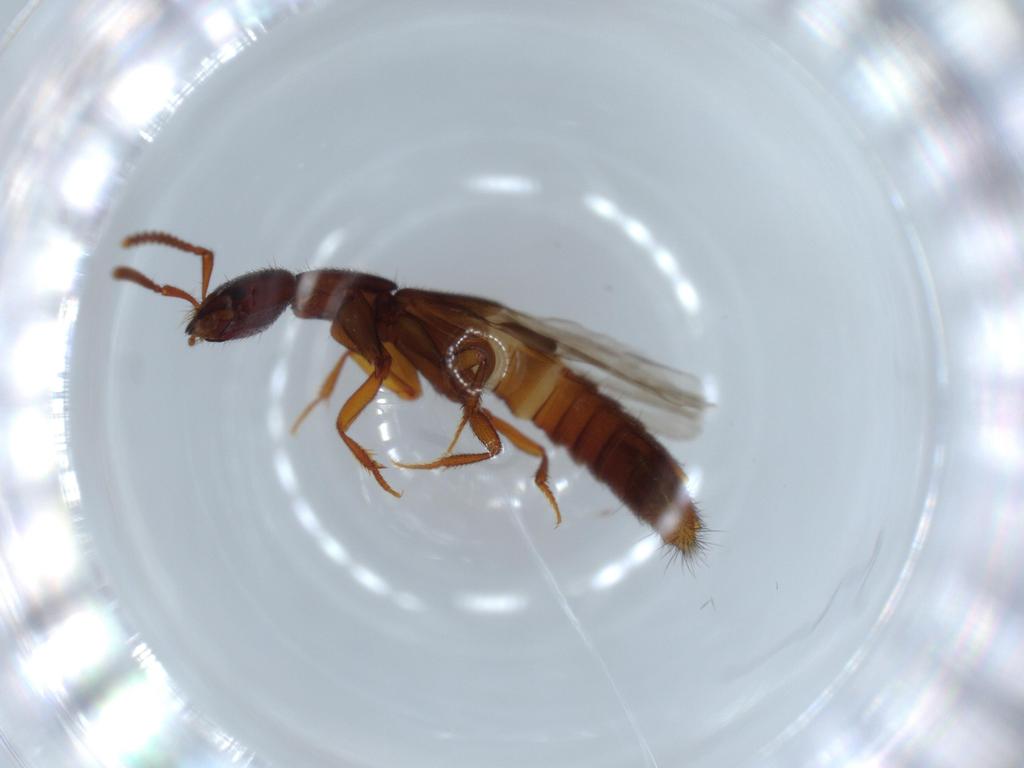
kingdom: Animalia
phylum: Arthropoda
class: Insecta
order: Coleoptera
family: Staphylinidae
